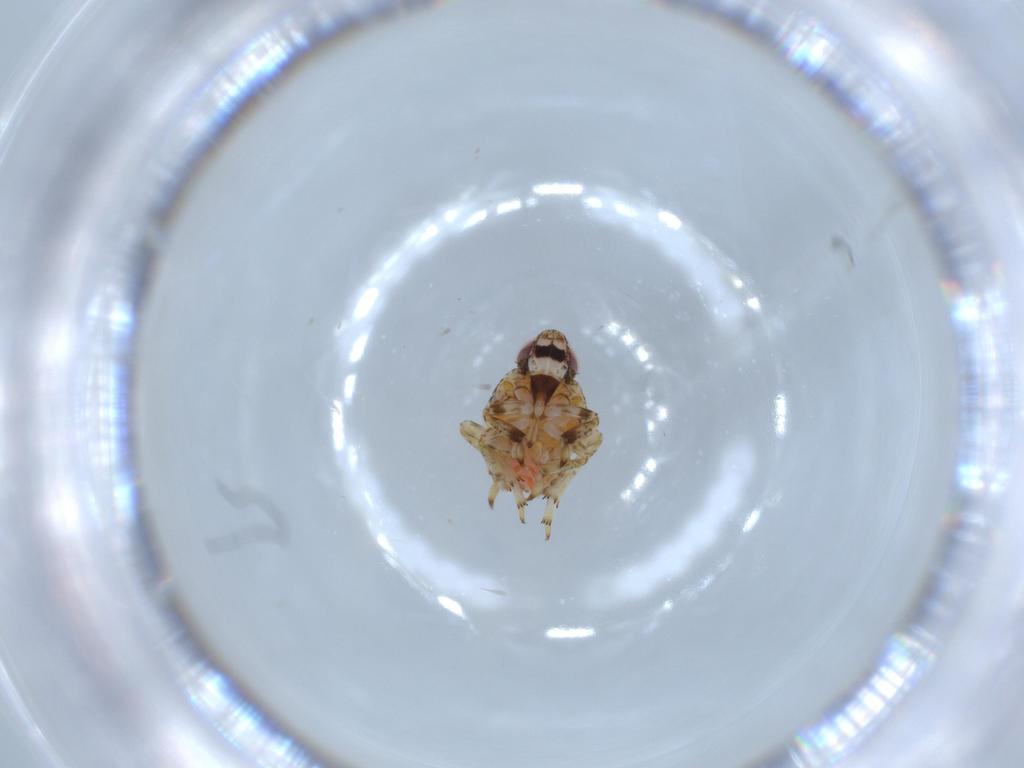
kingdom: Animalia
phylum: Arthropoda
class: Insecta
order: Hemiptera
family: Issidae
